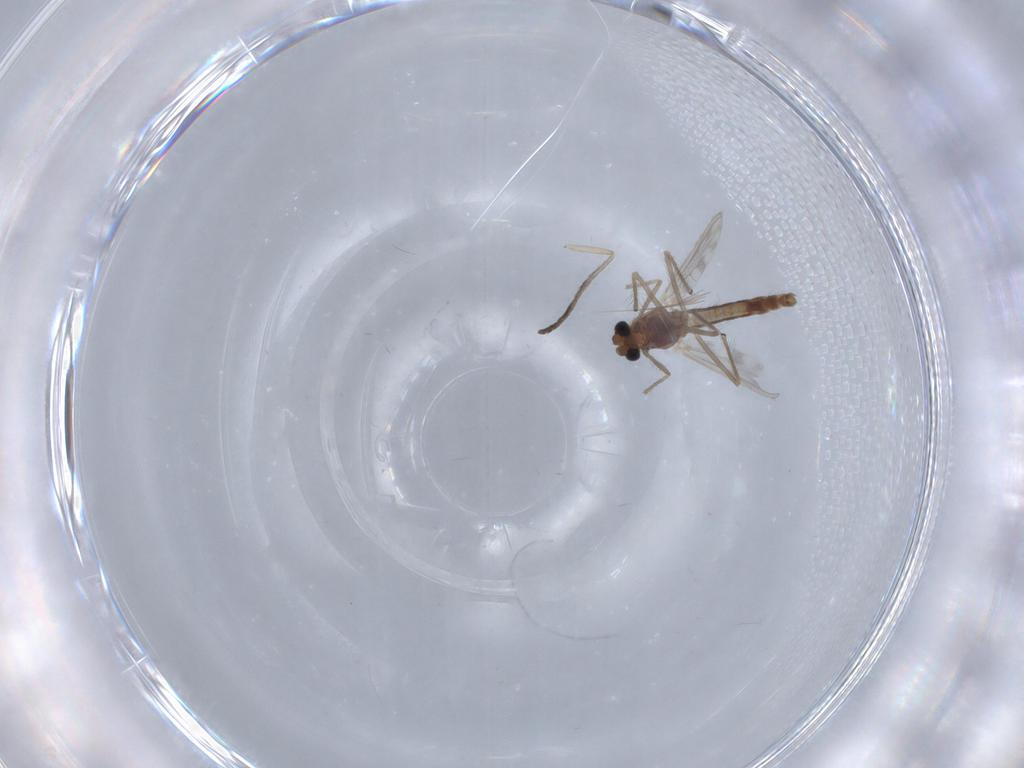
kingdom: Animalia
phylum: Arthropoda
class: Insecta
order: Diptera
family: Chironomidae
